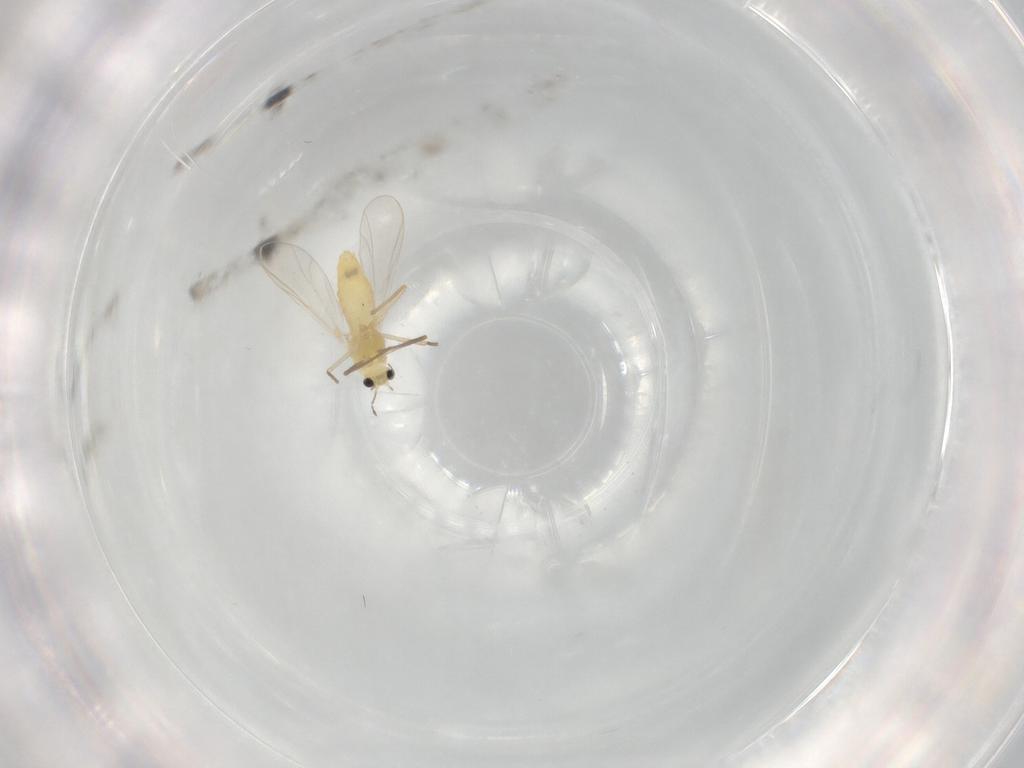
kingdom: Animalia
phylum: Arthropoda
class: Insecta
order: Diptera
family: Chironomidae
